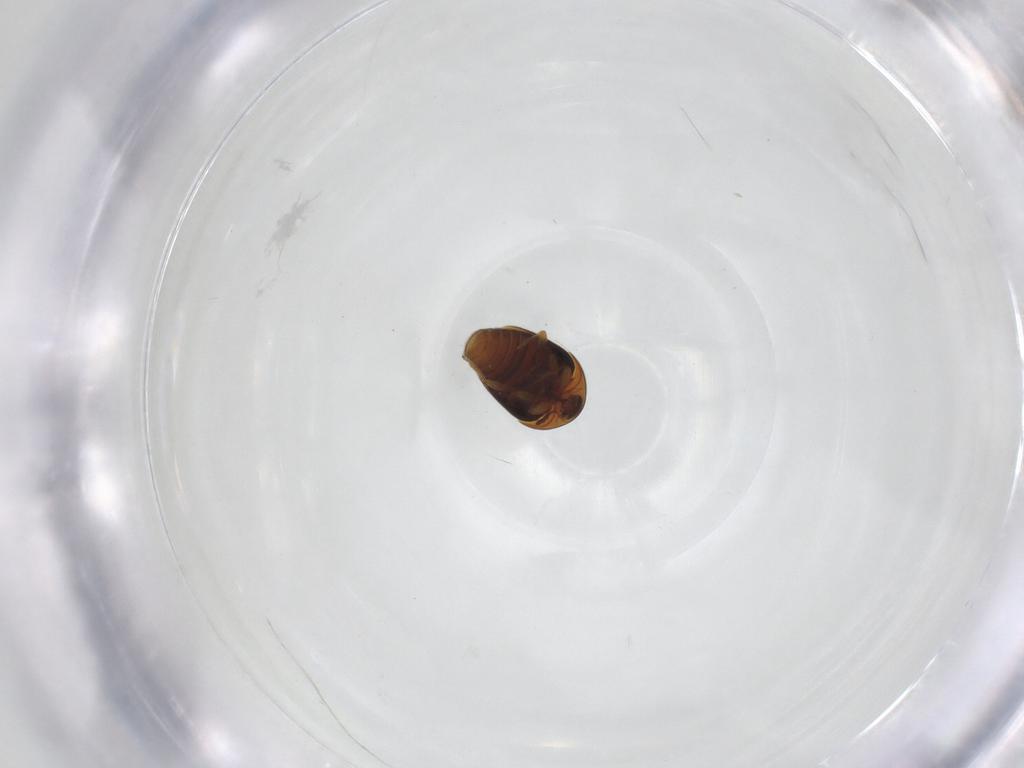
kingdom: Animalia
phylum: Arthropoda
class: Insecta
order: Coleoptera
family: Corylophidae
